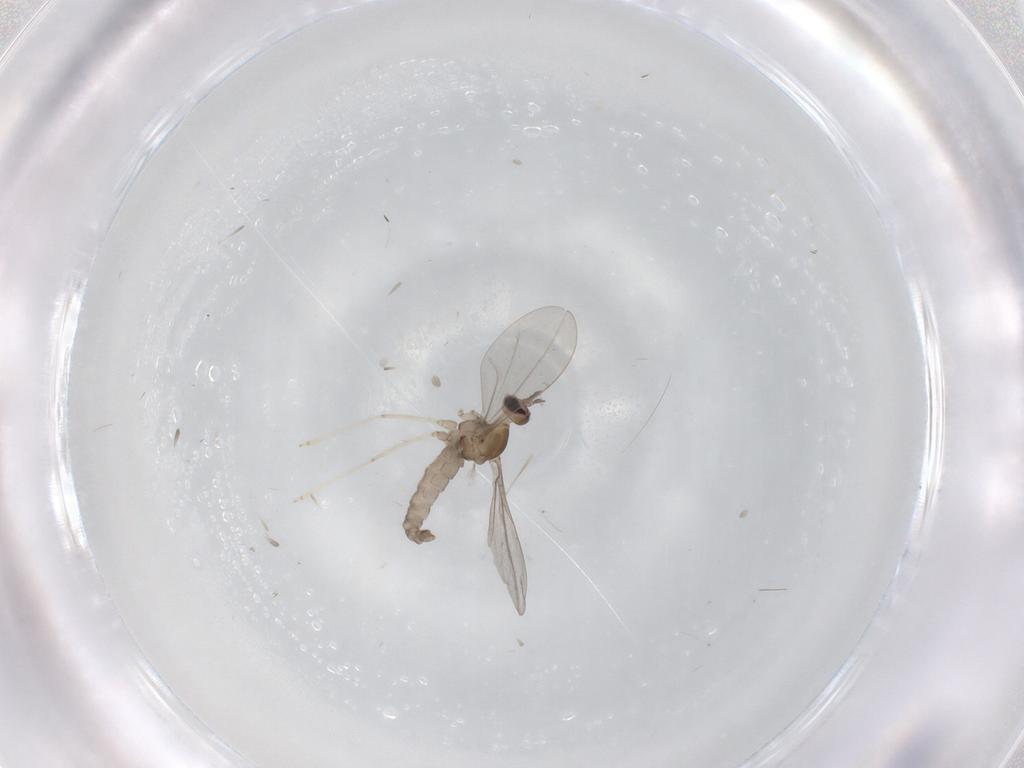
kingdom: Animalia
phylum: Arthropoda
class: Insecta
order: Diptera
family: Cecidomyiidae
